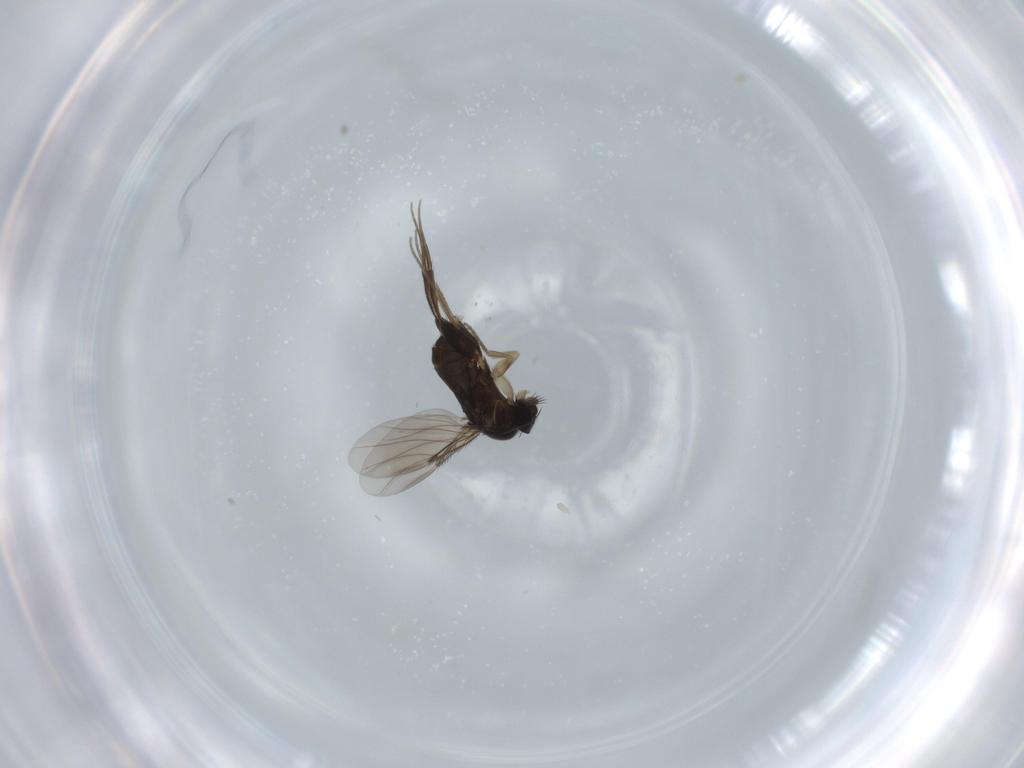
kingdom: Animalia
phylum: Arthropoda
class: Insecta
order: Diptera
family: Phoridae
